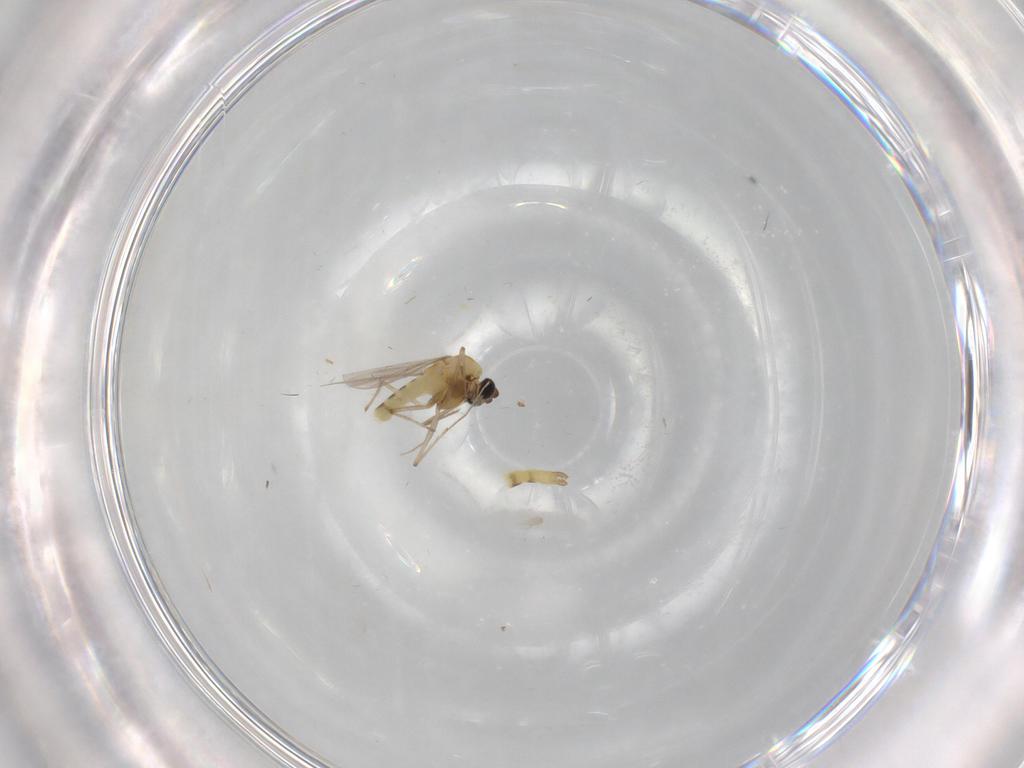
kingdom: Animalia
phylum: Arthropoda
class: Insecta
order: Diptera
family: Chironomidae
